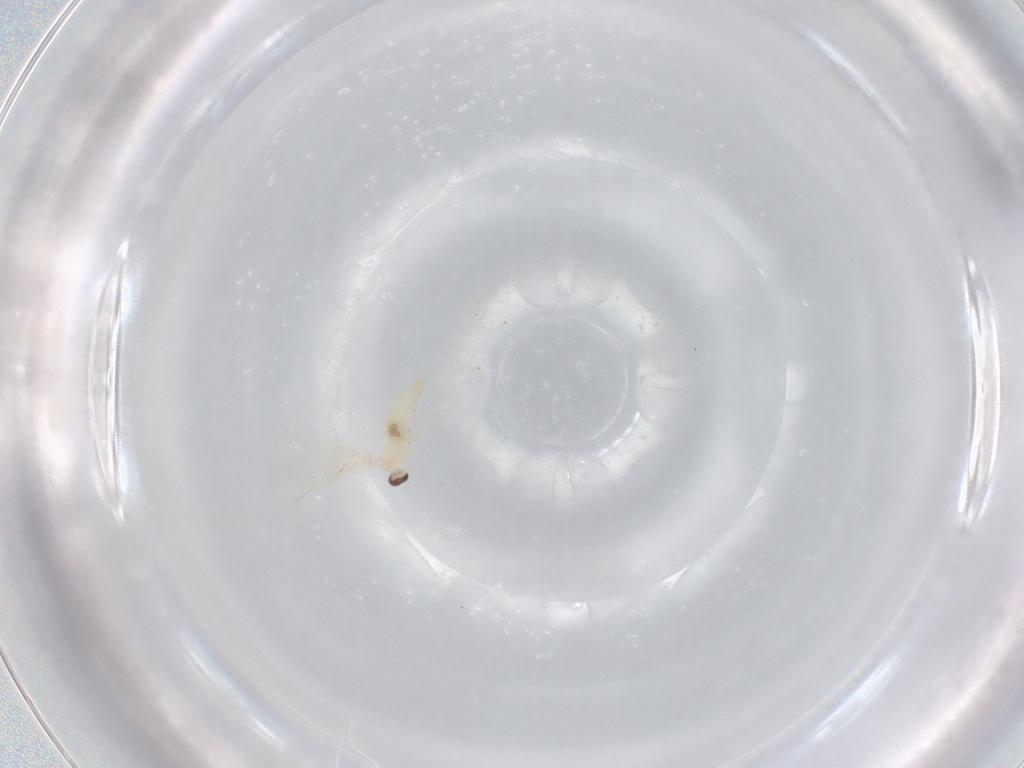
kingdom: Animalia
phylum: Arthropoda
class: Insecta
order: Diptera
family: Cecidomyiidae
